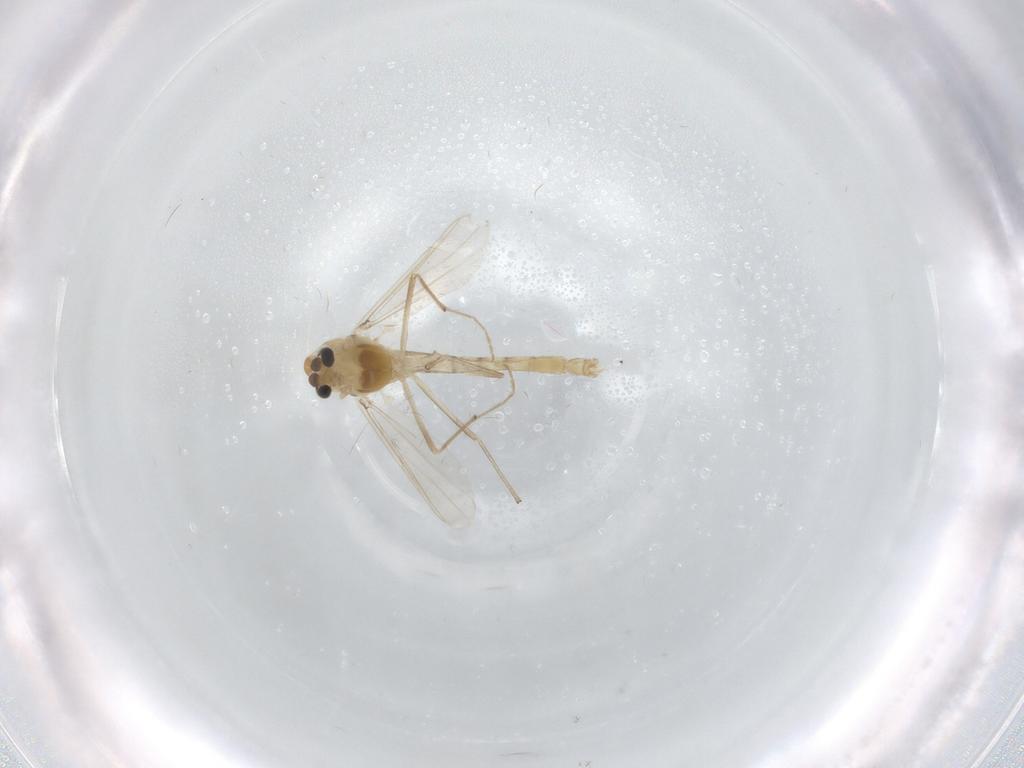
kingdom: Animalia
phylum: Arthropoda
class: Insecta
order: Diptera
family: Chironomidae
